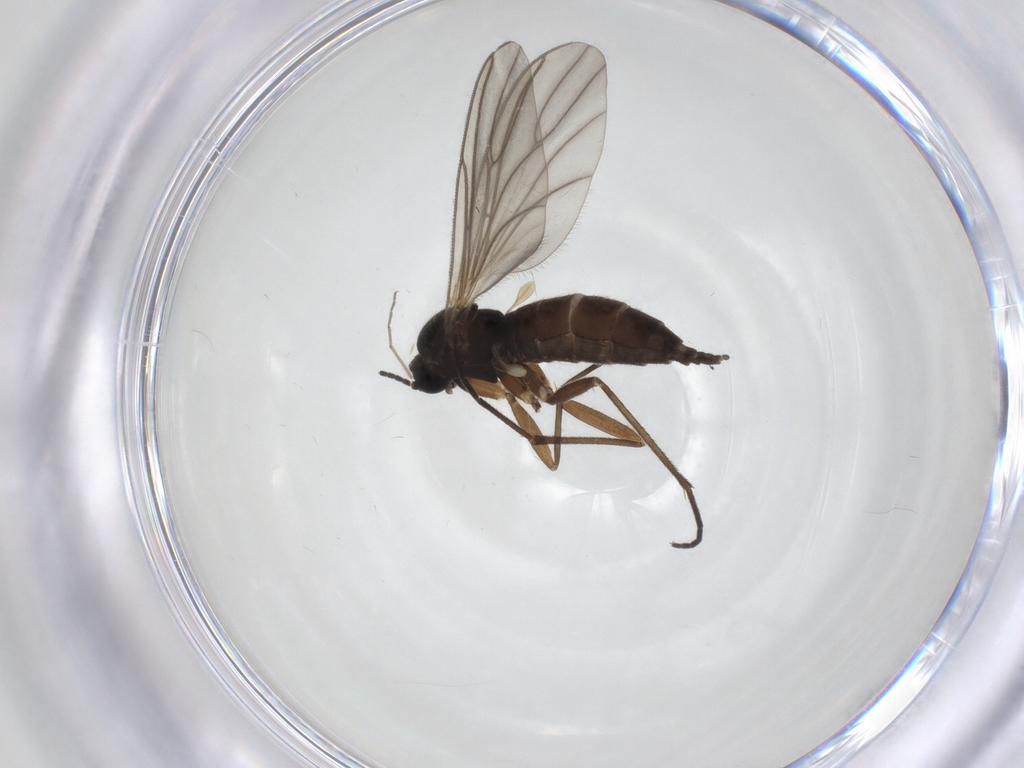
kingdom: Animalia
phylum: Arthropoda
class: Insecta
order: Diptera
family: Sciaridae
